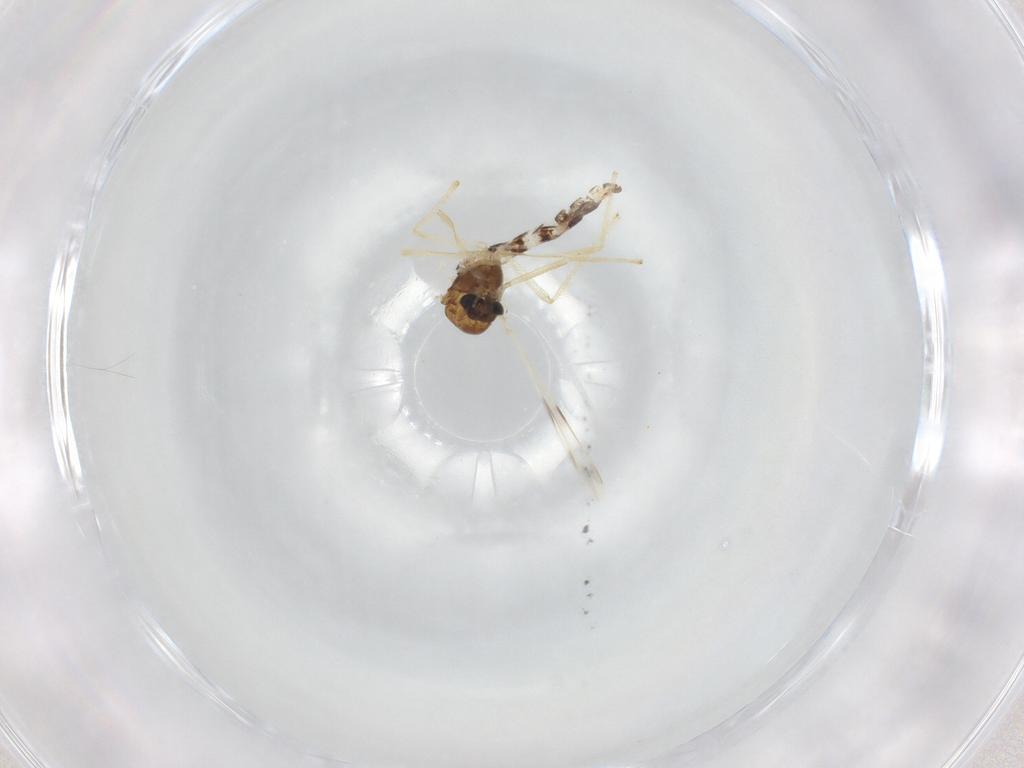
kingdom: Animalia
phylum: Arthropoda
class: Insecta
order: Diptera
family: Chironomidae
